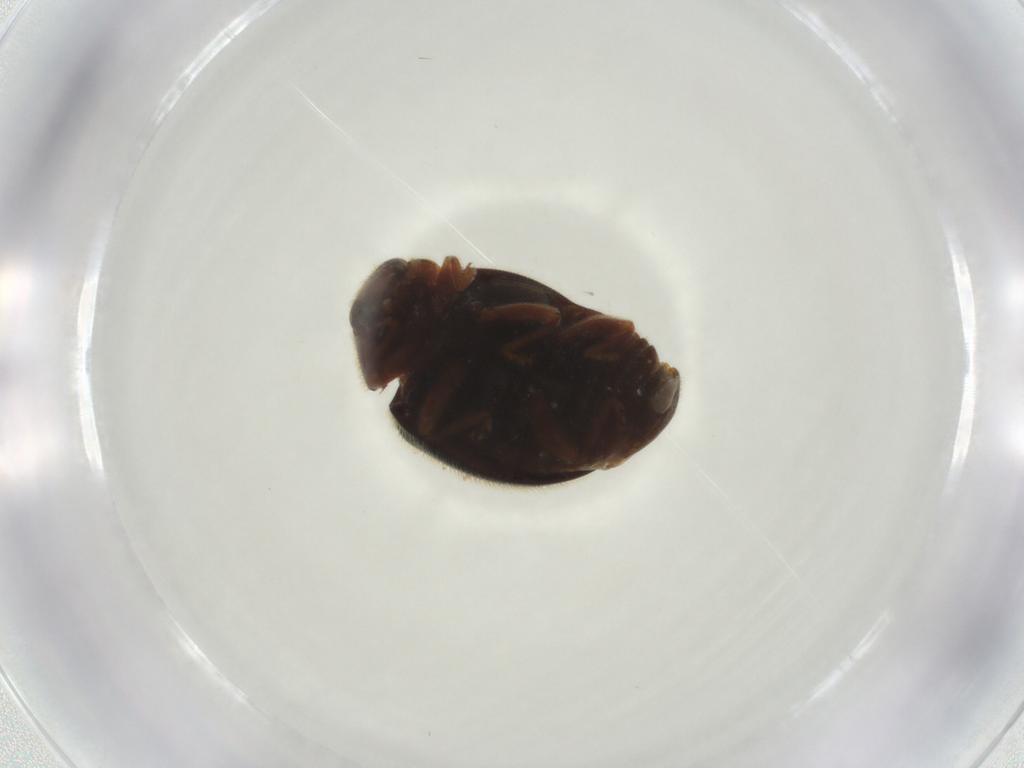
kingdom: Animalia
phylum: Arthropoda
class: Insecta
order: Coleoptera
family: Coccinellidae
